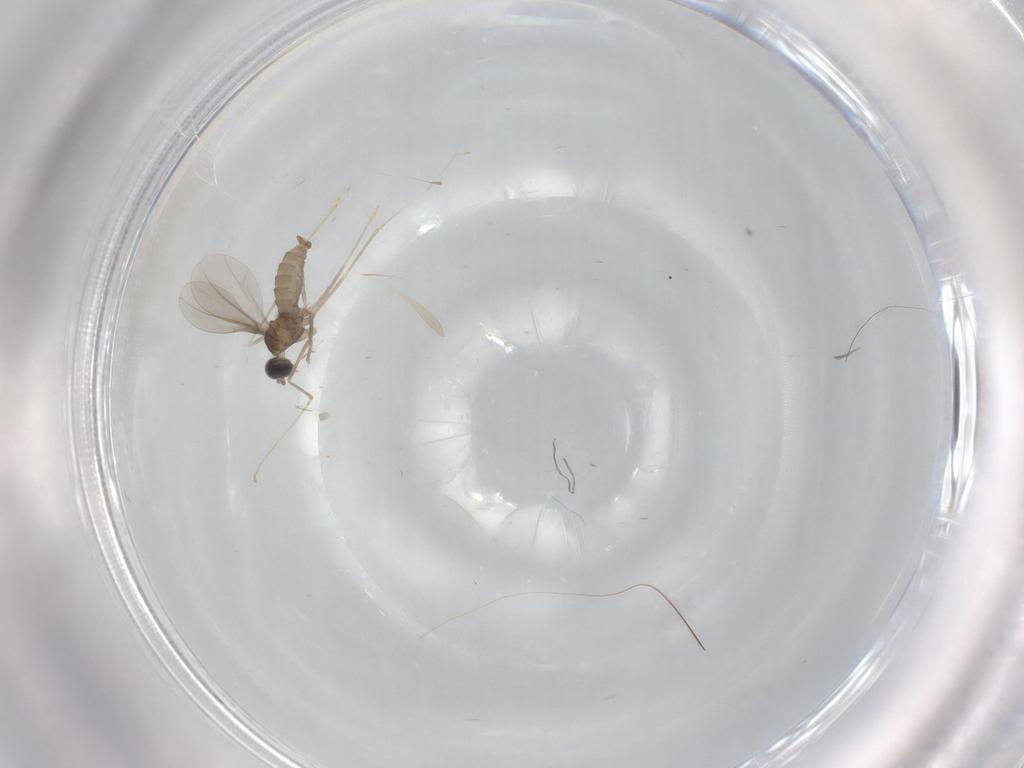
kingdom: Animalia
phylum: Arthropoda
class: Insecta
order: Diptera
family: Cecidomyiidae
